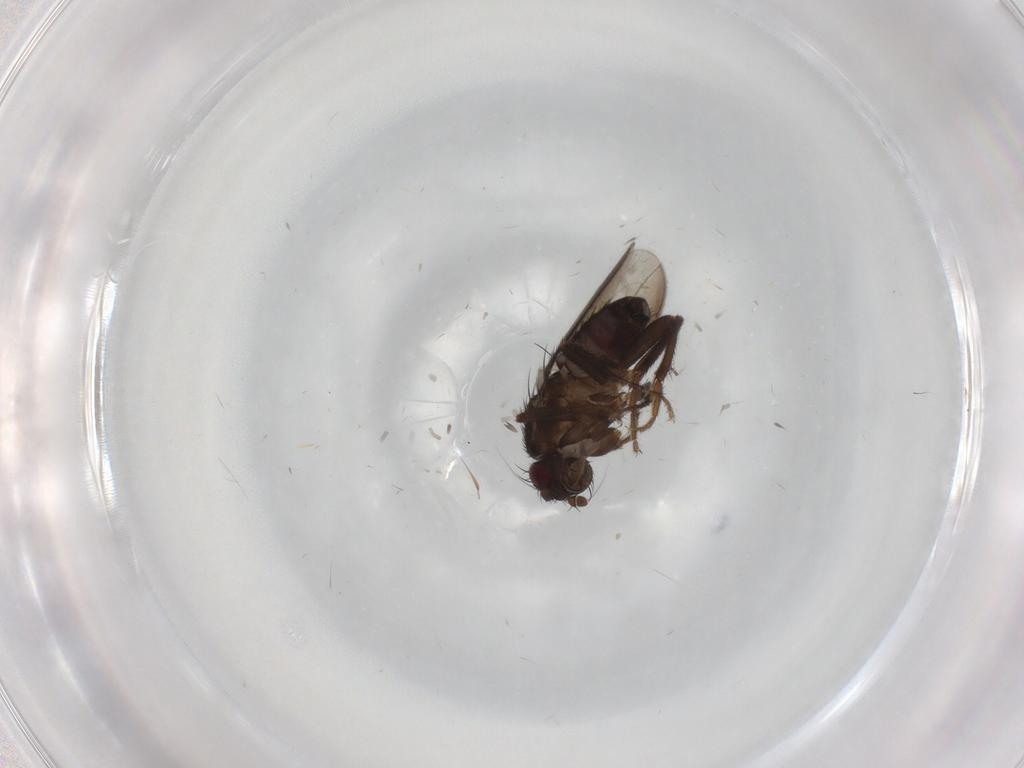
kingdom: Animalia
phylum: Arthropoda
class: Insecta
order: Diptera
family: Sphaeroceridae
